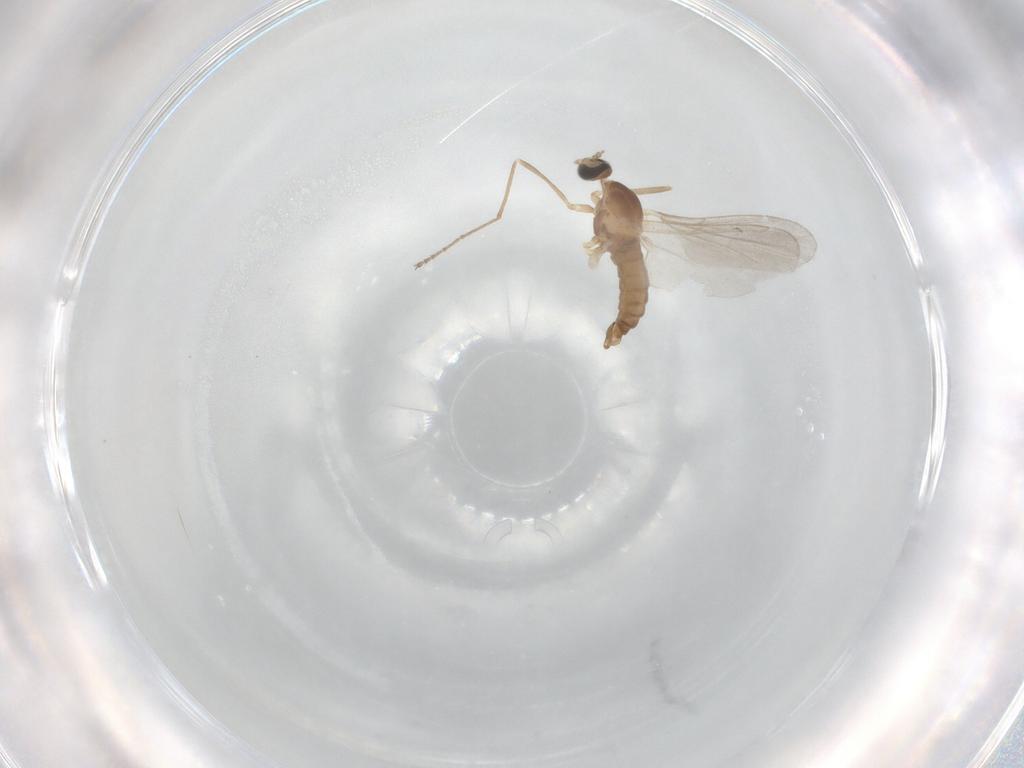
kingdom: Animalia
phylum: Arthropoda
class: Insecta
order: Diptera
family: Cecidomyiidae
